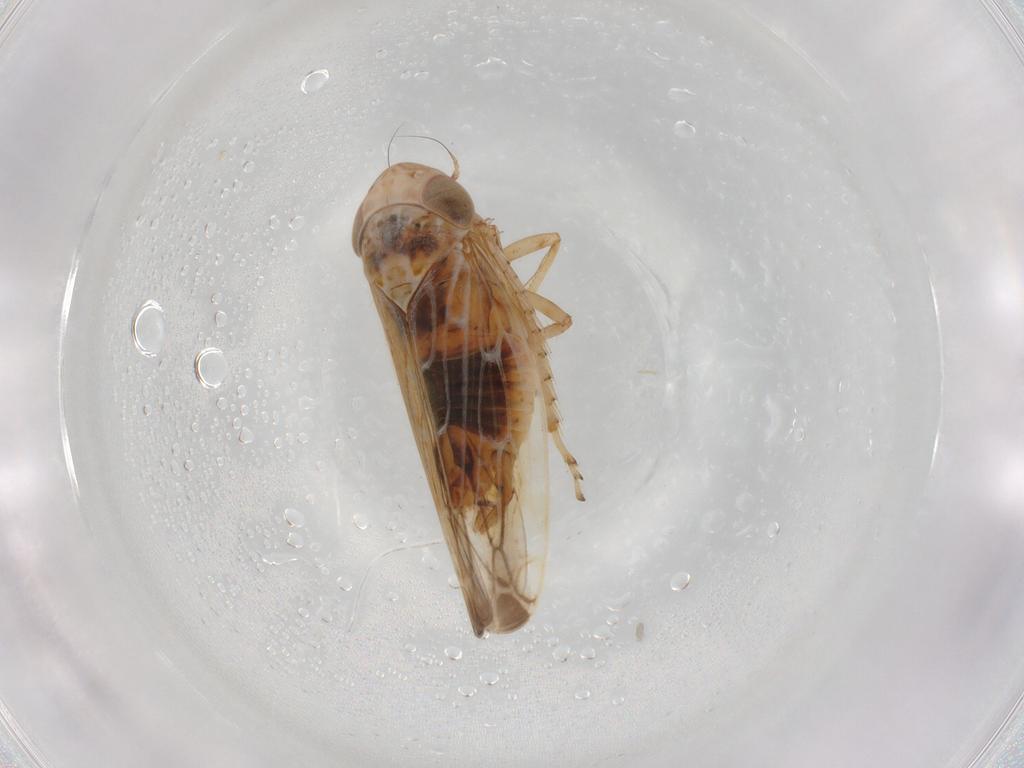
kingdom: Animalia
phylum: Arthropoda
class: Insecta
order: Hemiptera
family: Cicadellidae
